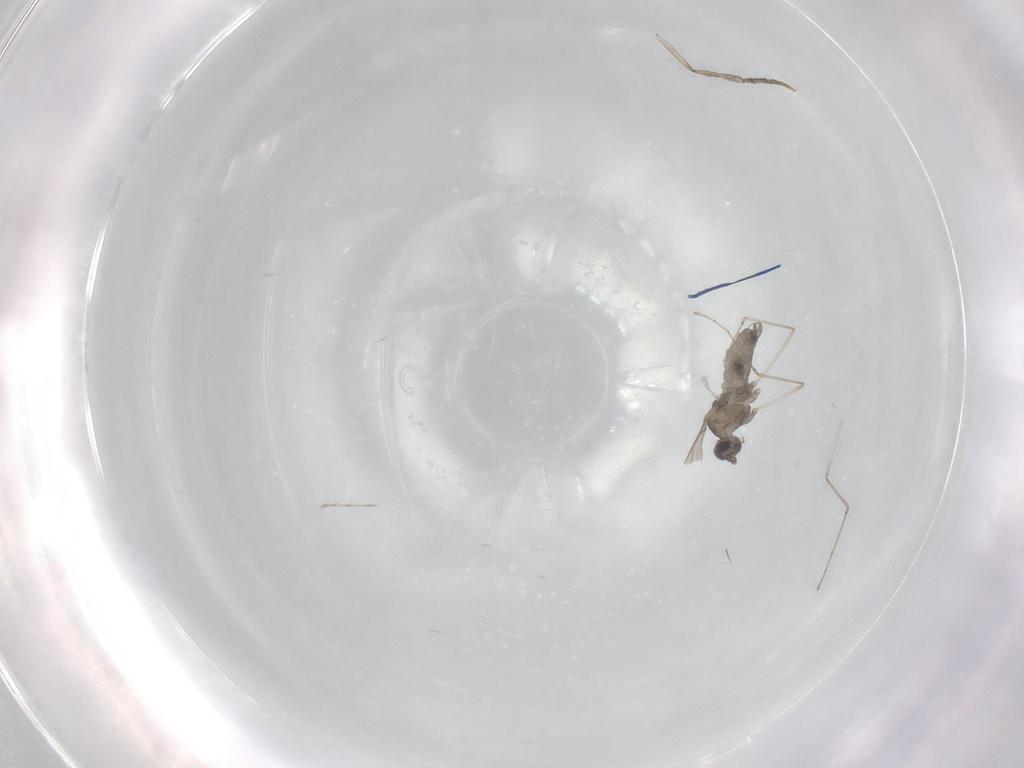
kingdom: Animalia
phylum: Arthropoda
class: Insecta
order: Diptera
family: Cecidomyiidae
